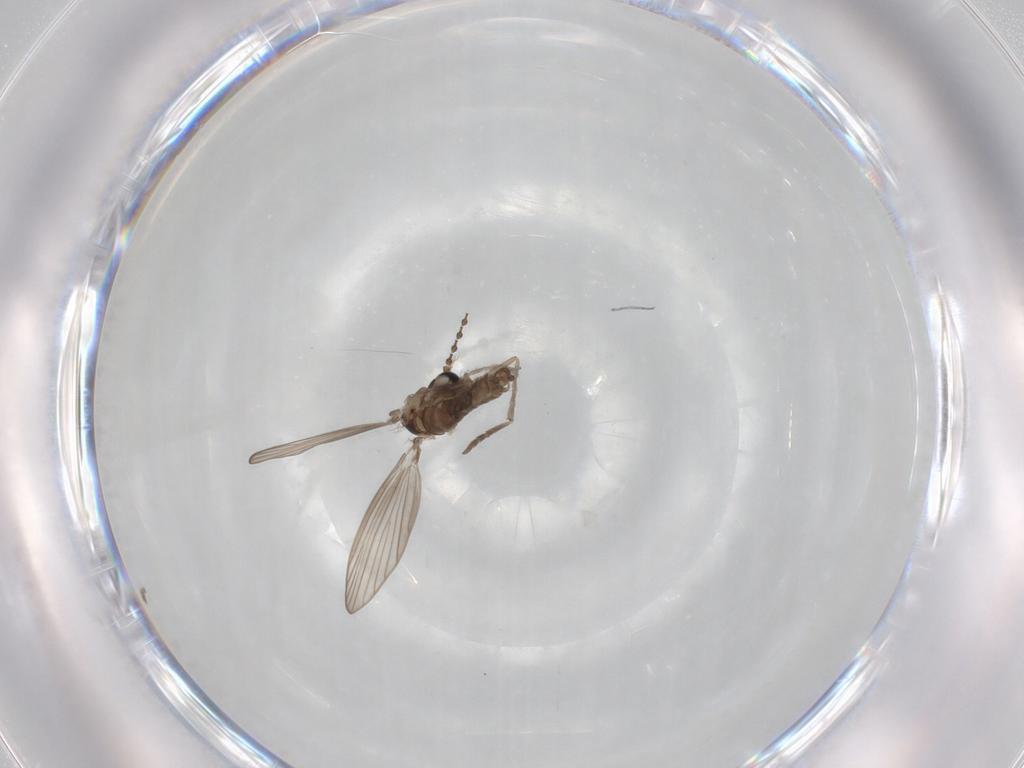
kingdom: Animalia
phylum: Arthropoda
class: Insecta
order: Diptera
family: Psychodidae
